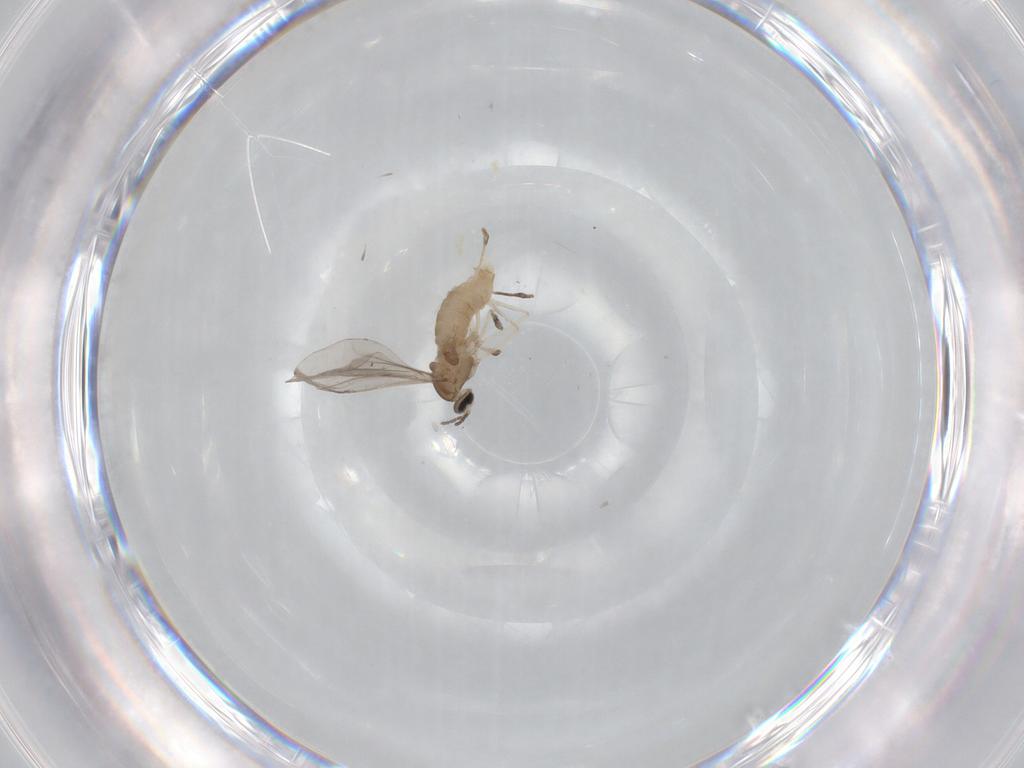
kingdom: Animalia
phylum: Arthropoda
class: Insecta
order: Diptera
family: Cecidomyiidae
